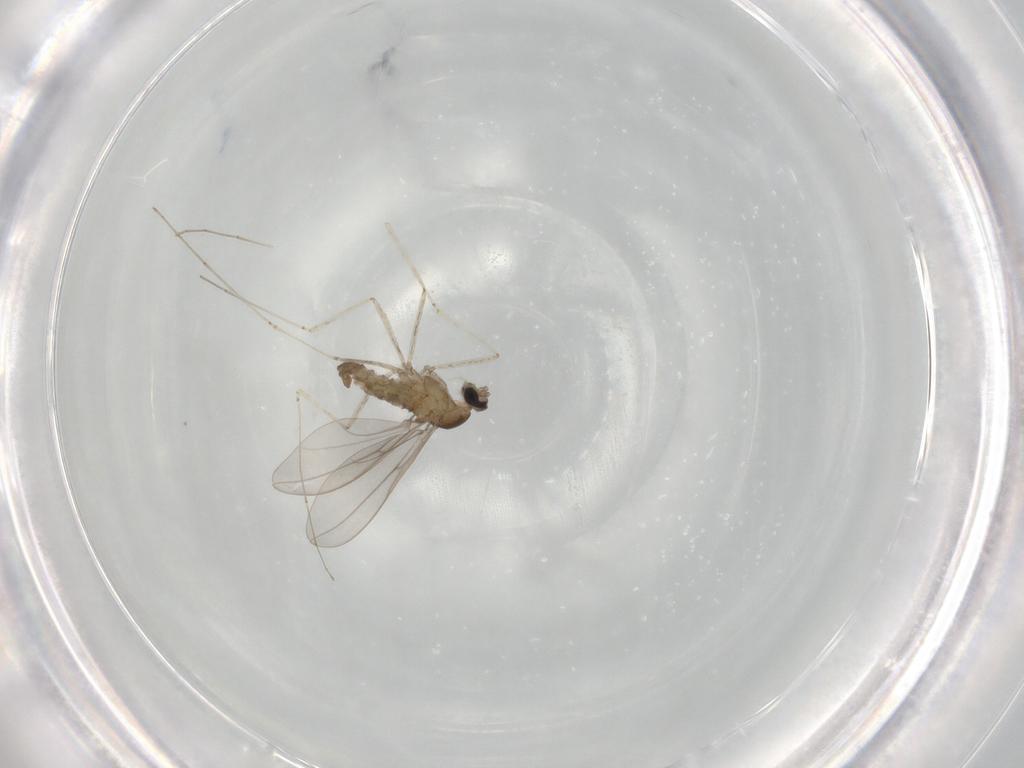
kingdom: Animalia
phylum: Arthropoda
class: Insecta
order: Diptera
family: Cecidomyiidae
